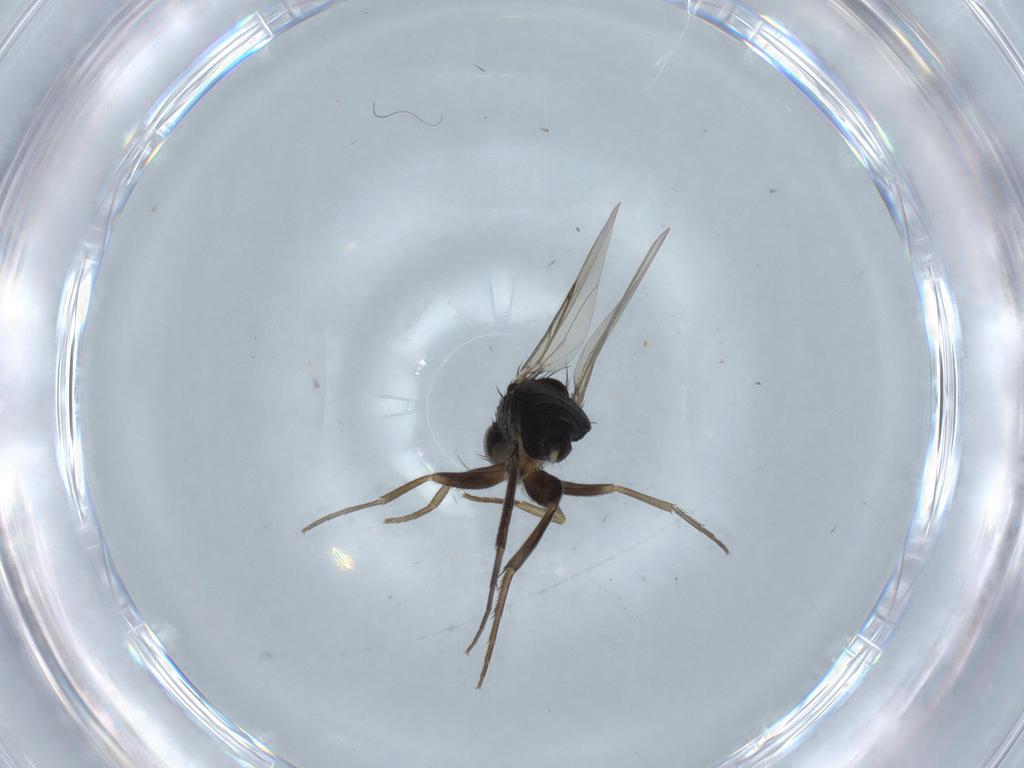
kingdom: Animalia
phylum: Arthropoda
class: Insecta
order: Diptera
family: Phoridae
